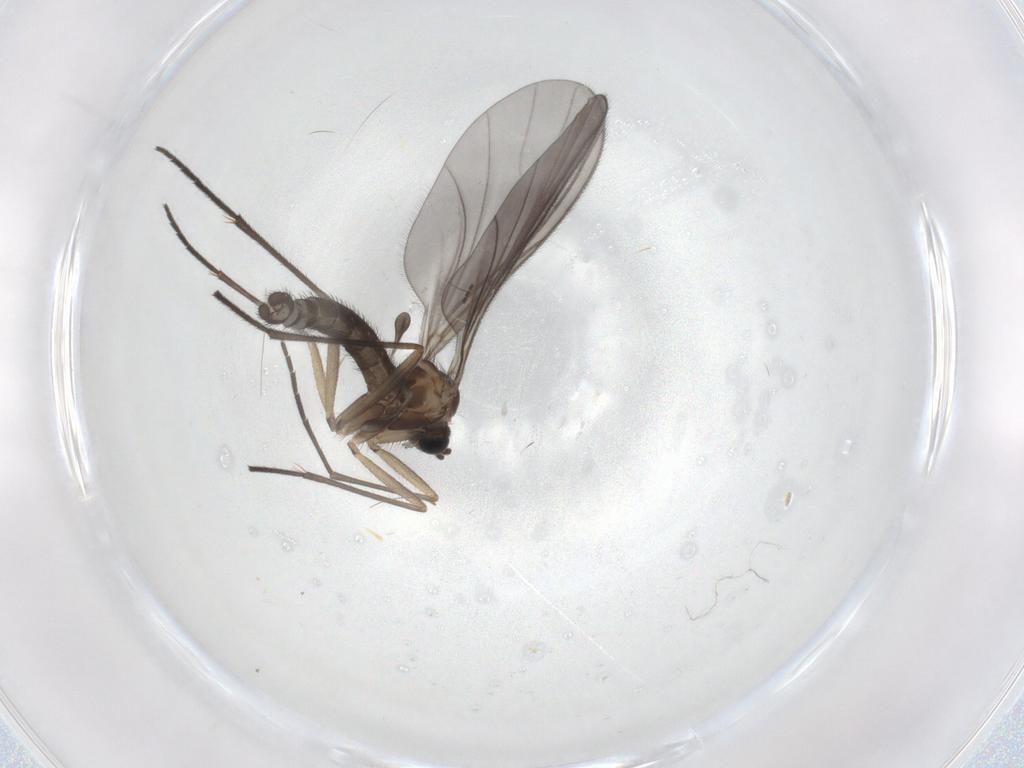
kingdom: Animalia
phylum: Arthropoda
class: Insecta
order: Diptera
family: Sciaridae
